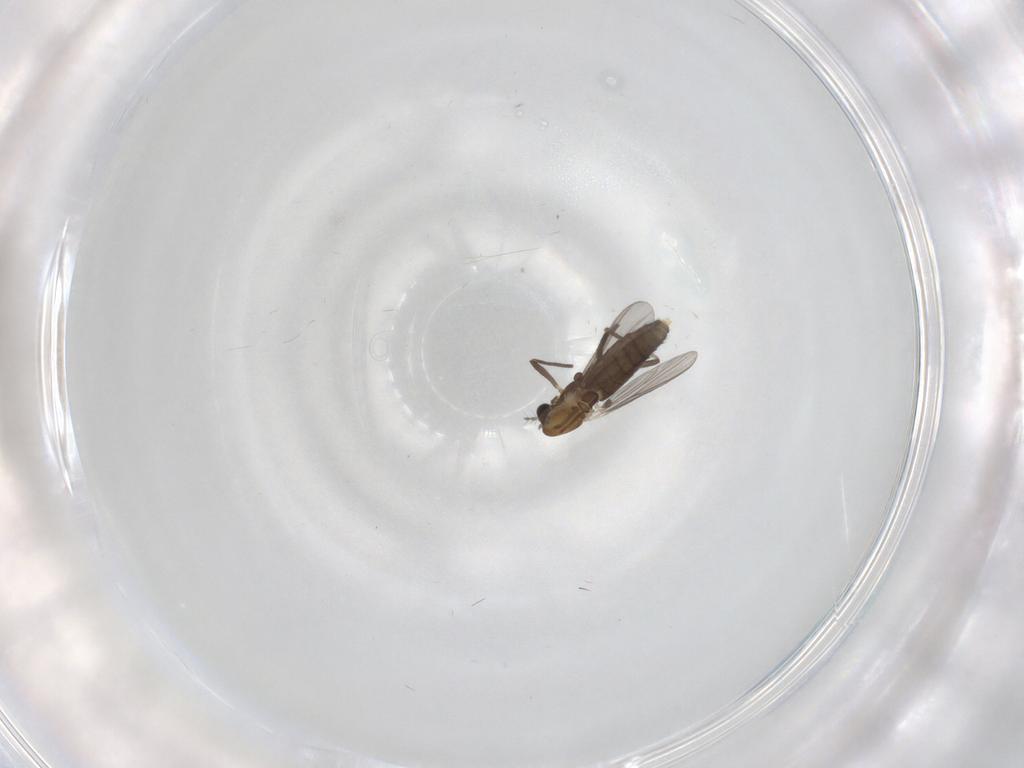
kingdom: Animalia
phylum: Arthropoda
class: Insecta
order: Diptera
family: Chironomidae
